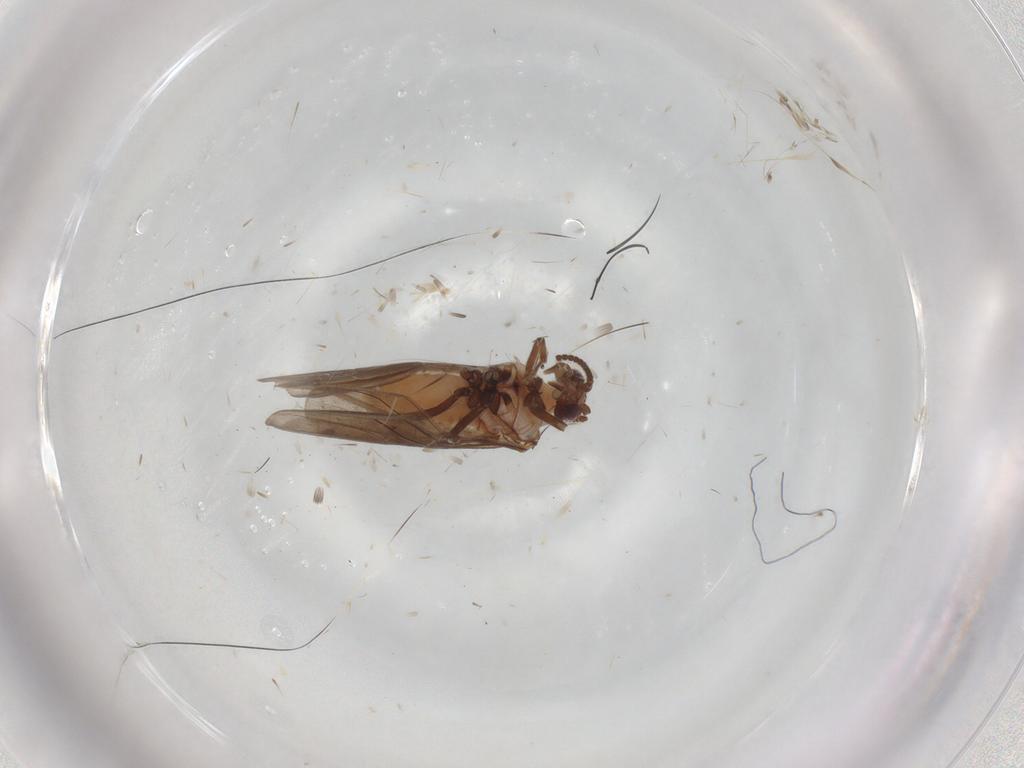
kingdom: Animalia
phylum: Arthropoda
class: Insecta
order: Neuroptera
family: Coniopterygidae
